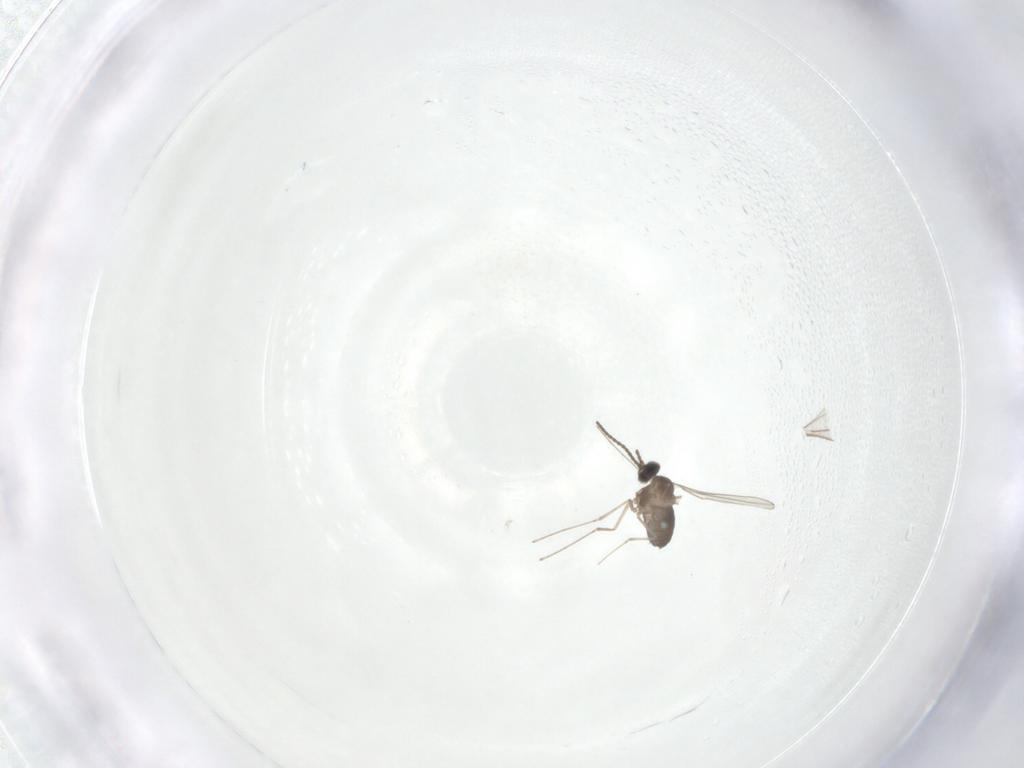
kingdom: Animalia
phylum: Arthropoda
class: Insecta
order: Diptera
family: Cecidomyiidae
